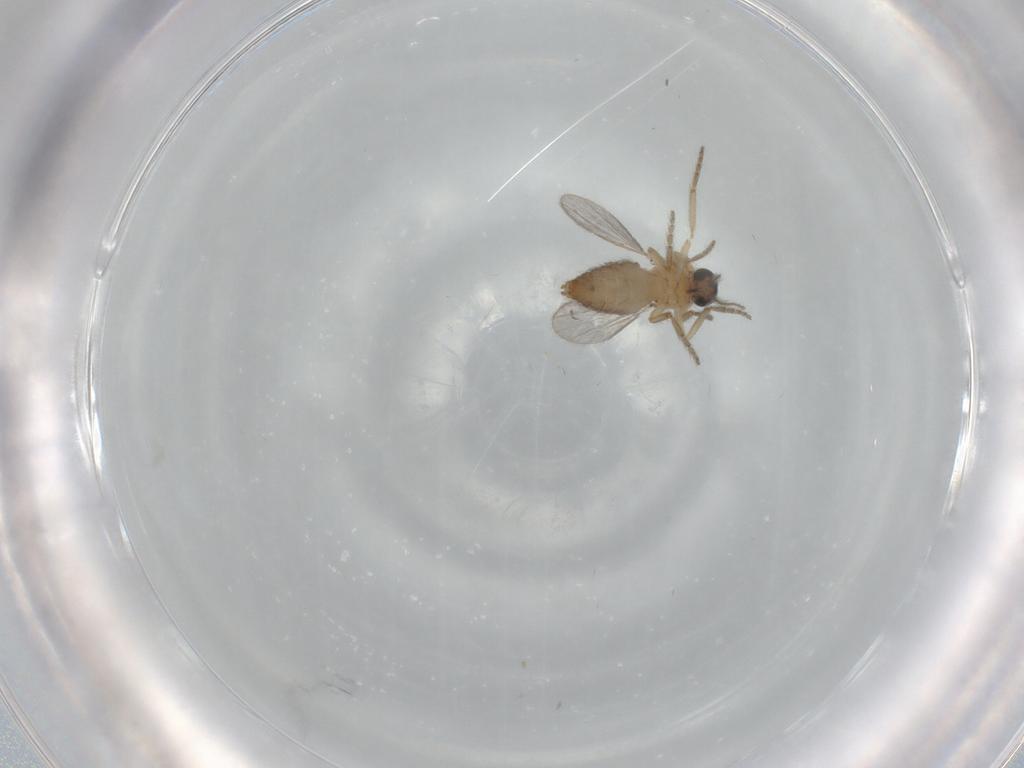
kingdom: Animalia
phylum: Arthropoda
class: Insecta
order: Diptera
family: Ceratopogonidae
